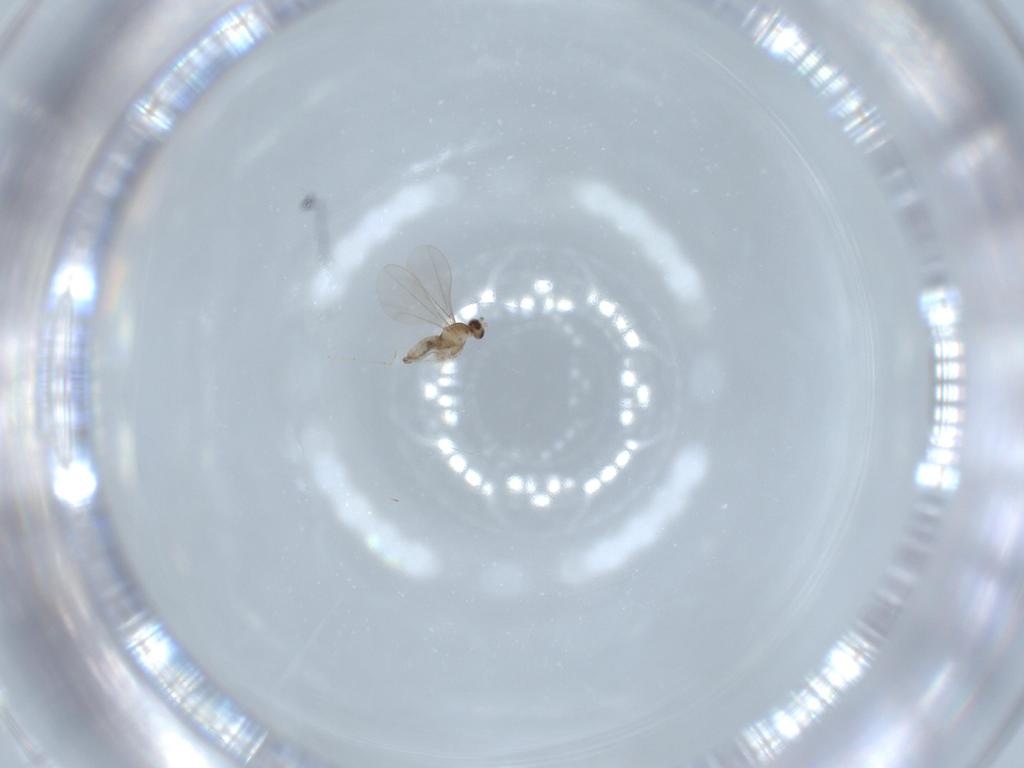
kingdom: Animalia
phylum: Arthropoda
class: Insecta
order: Diptera
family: Cecidomyiidae
